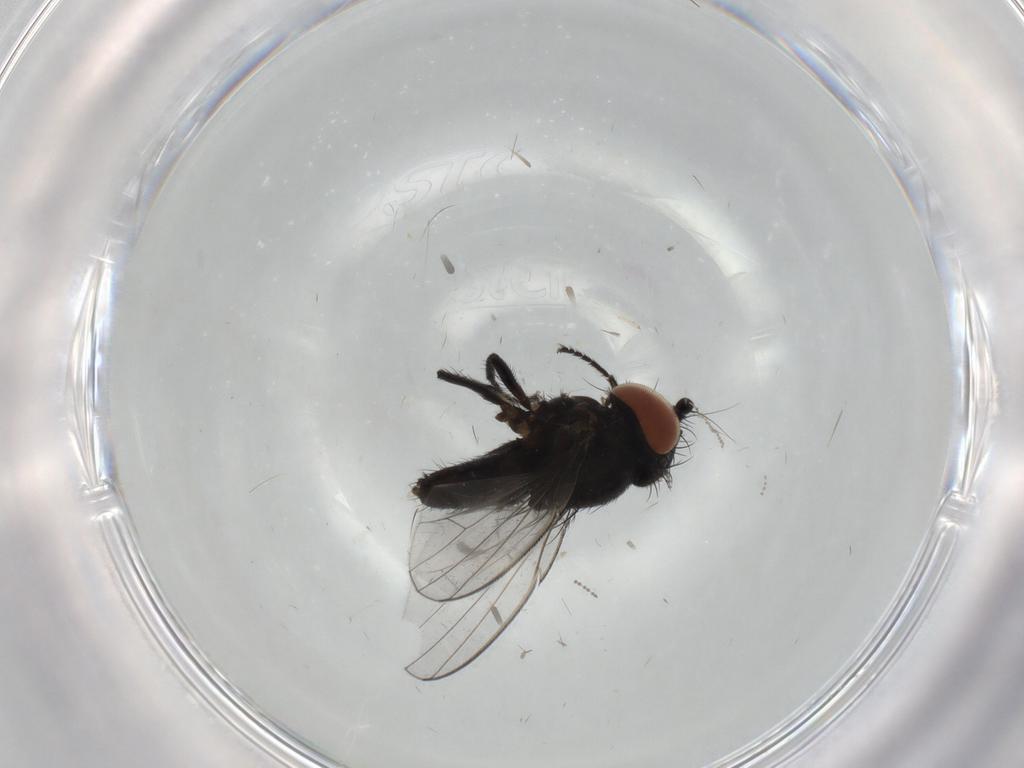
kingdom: Animalia
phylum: Arthropoda
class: Insecta
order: Diptera
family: Milichiidae
